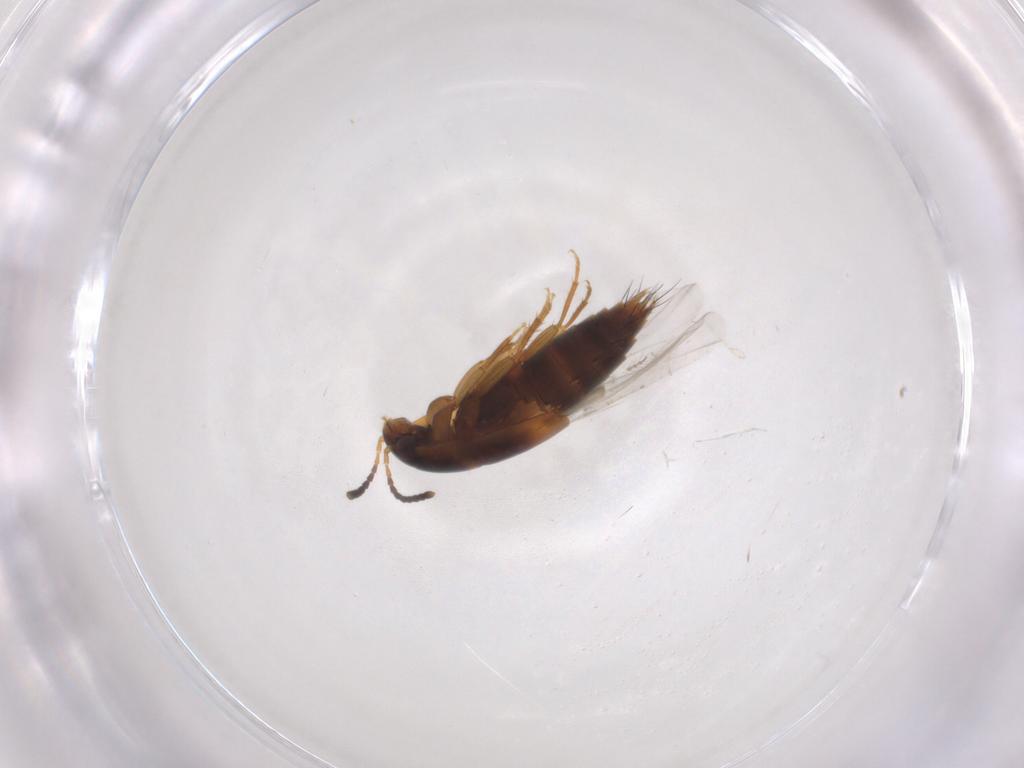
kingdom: Animalia
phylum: Arthropoda
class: Insecta
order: Coleoptera
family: Staphylinidae
